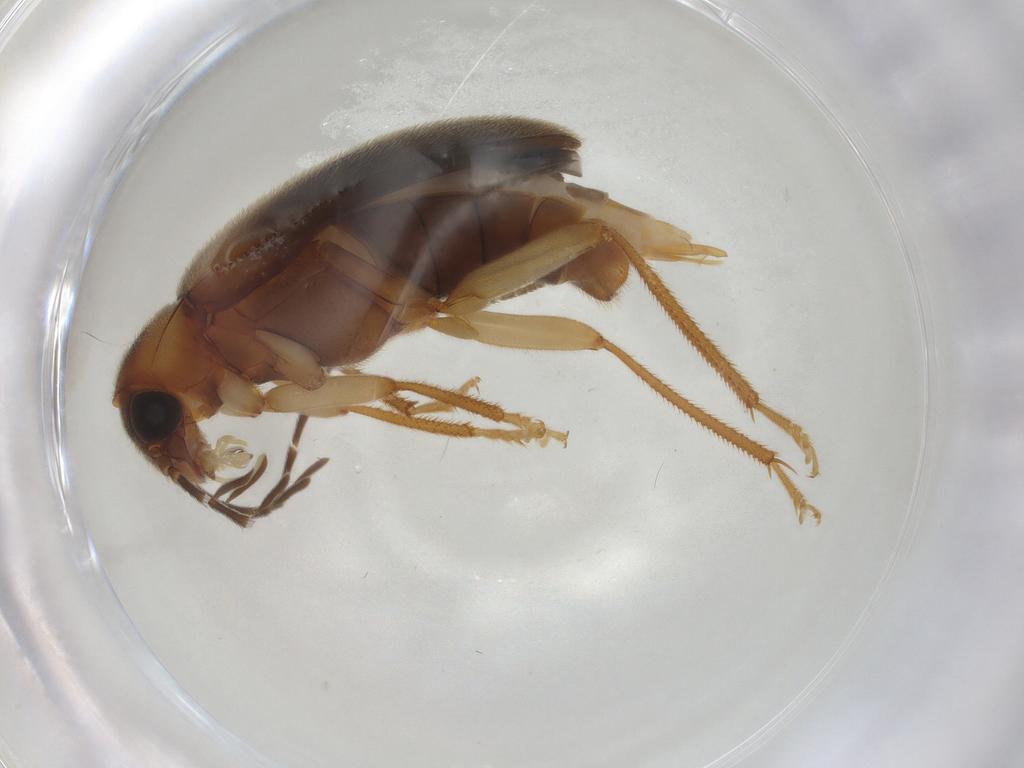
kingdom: Animalia
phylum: Arthropoda
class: Insecta
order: Coleoptera
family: Ptilodactylidae
